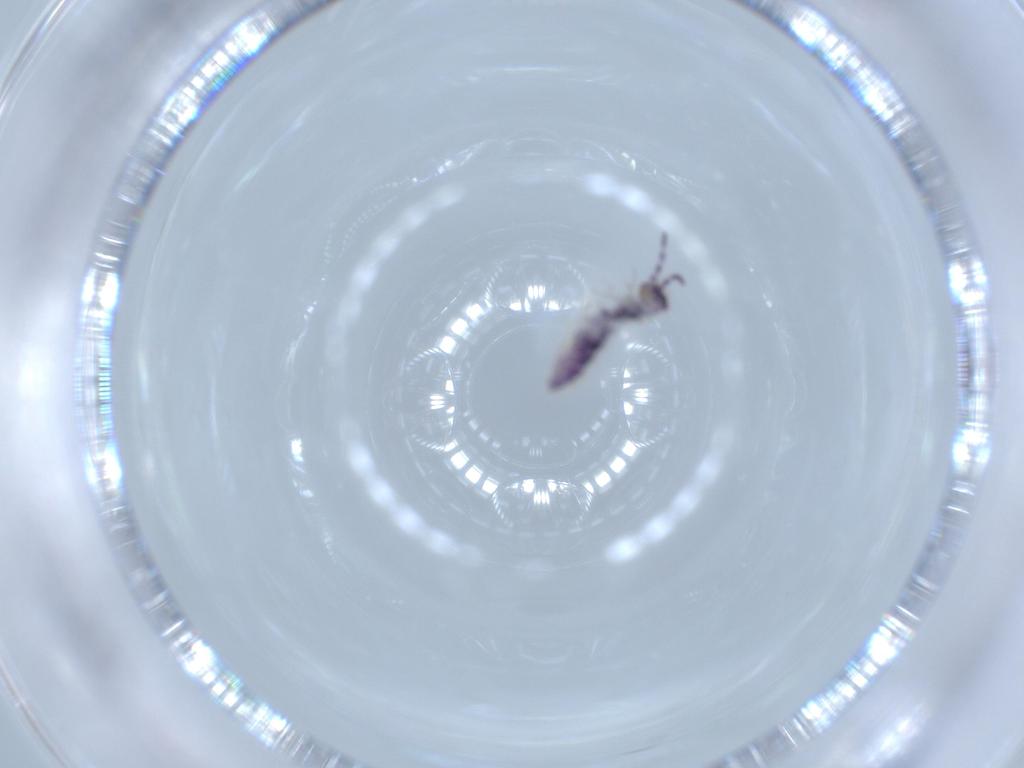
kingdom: Animalia
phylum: Arthropoda
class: Collembola
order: Entomobryomorpha
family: Isotomidae
